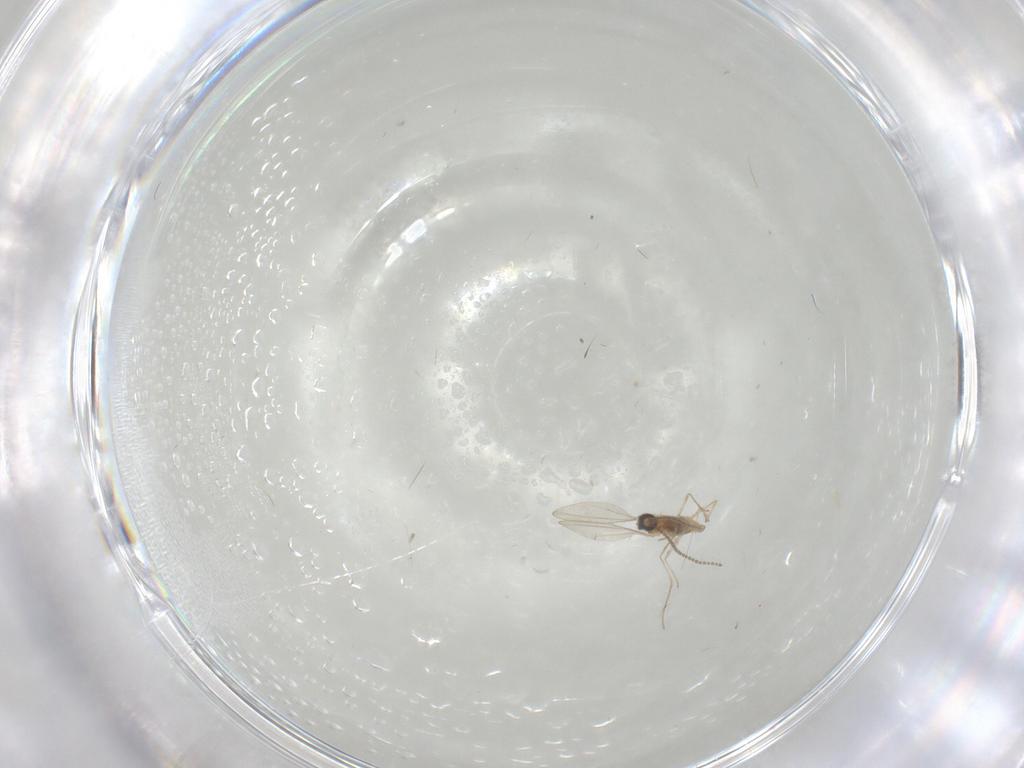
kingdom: Animalia
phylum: Arthropoda
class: Insecta
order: Diptera
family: Cecidomyiidae
